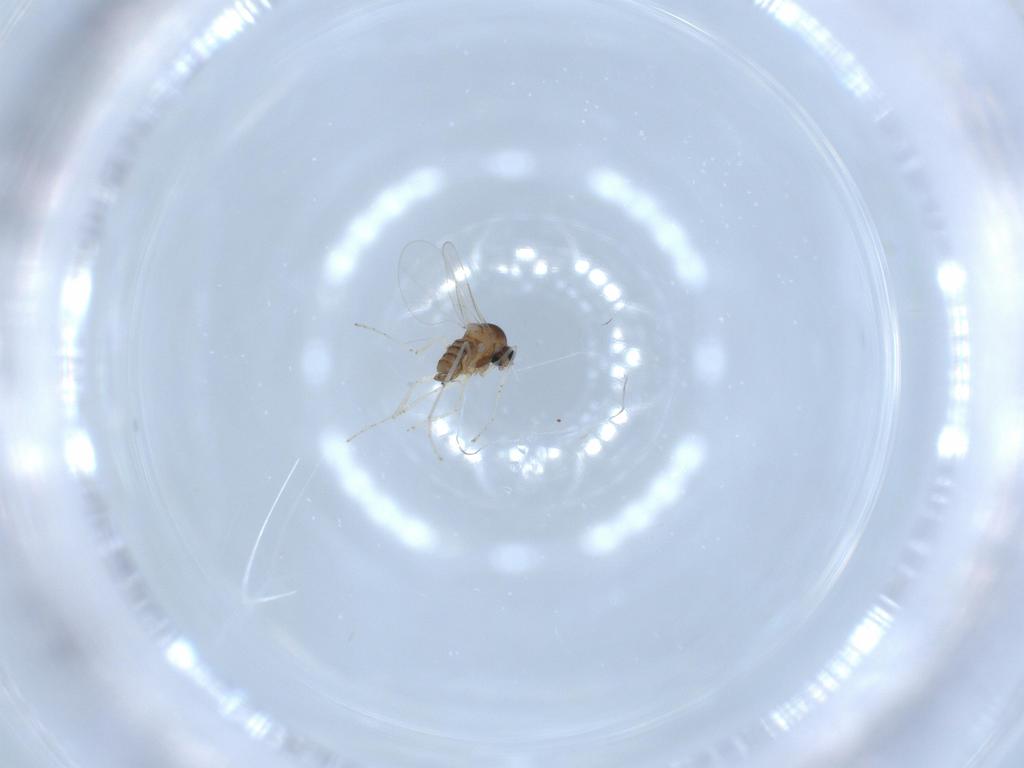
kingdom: Animalia
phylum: Arthropoda
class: Insecta
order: Diptera
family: Cecidomyiidae
